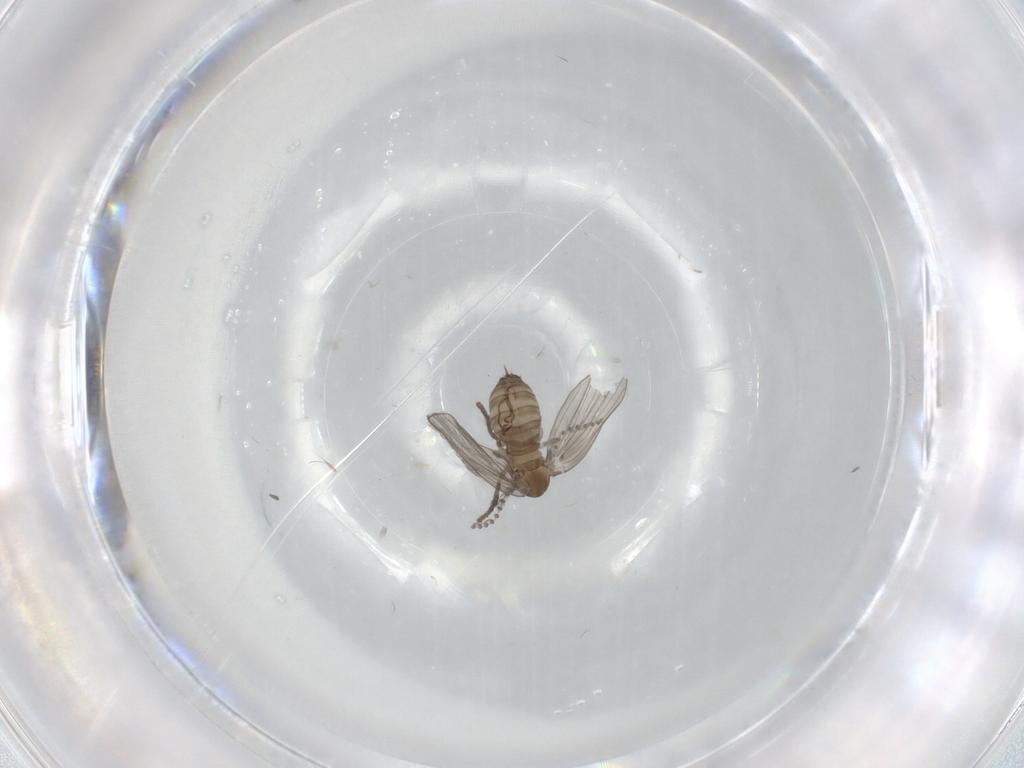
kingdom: Animalia
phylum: Arthropoda
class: Insecta
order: Diptera
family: Psychodidae
